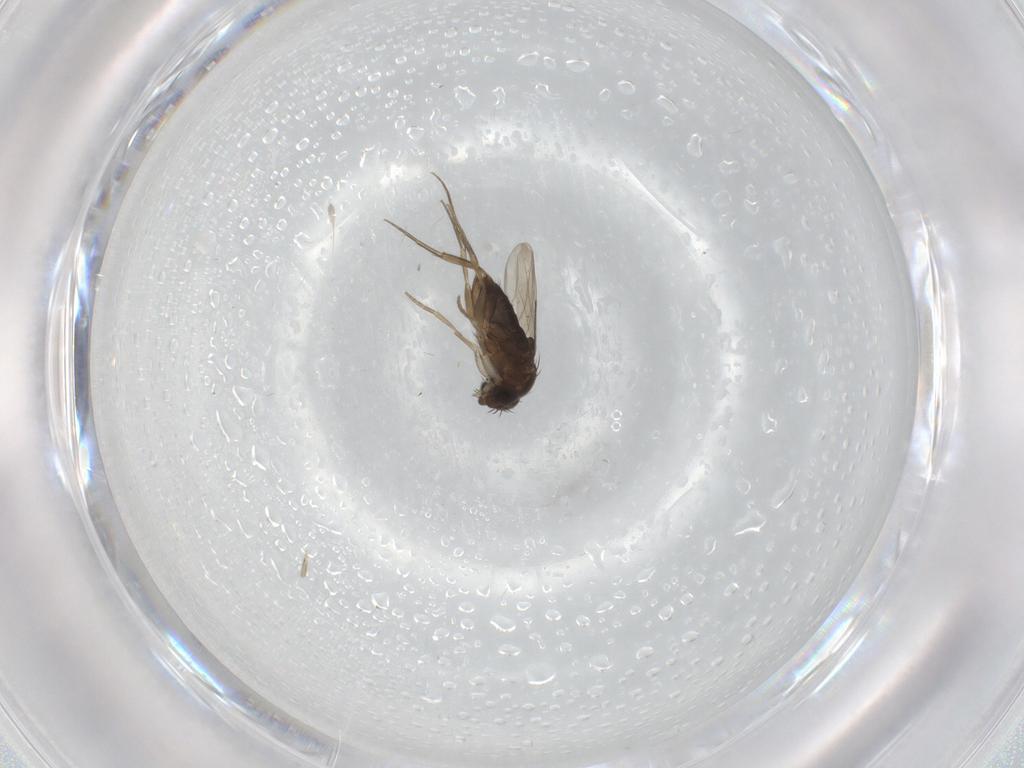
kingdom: Animalia
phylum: Arthropoda
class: Insecta
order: Diptera
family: Phoridae
